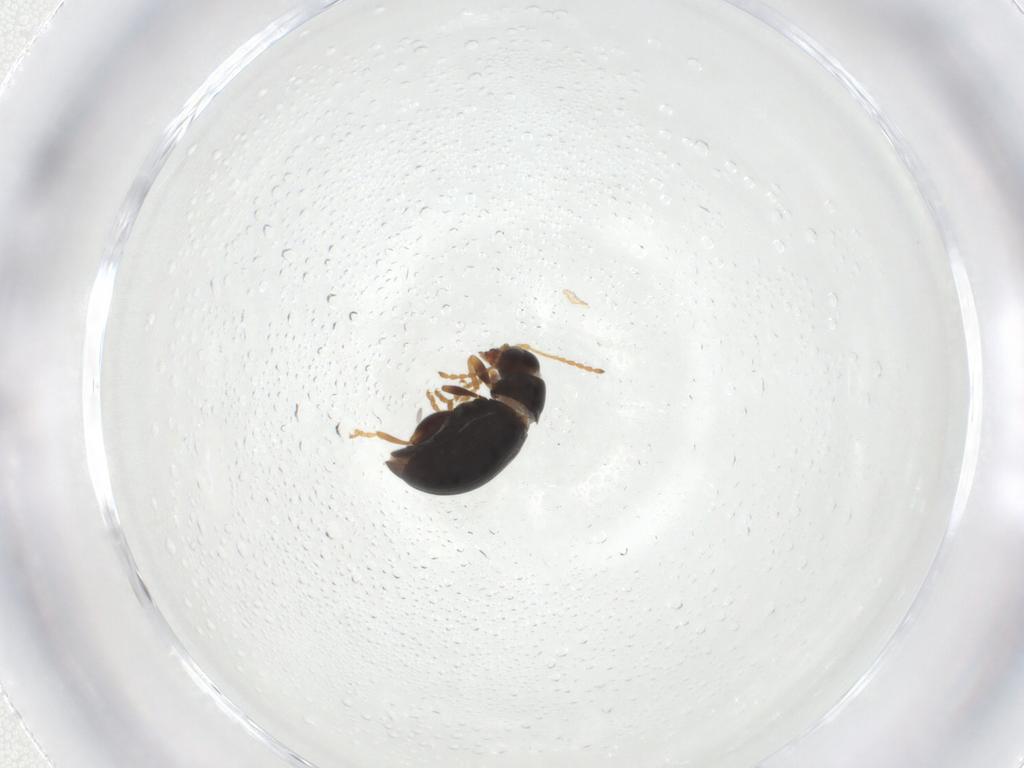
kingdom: Animalia
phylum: Arthropoda
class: Insecta
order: Coleoptera
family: Chrysomelidae
